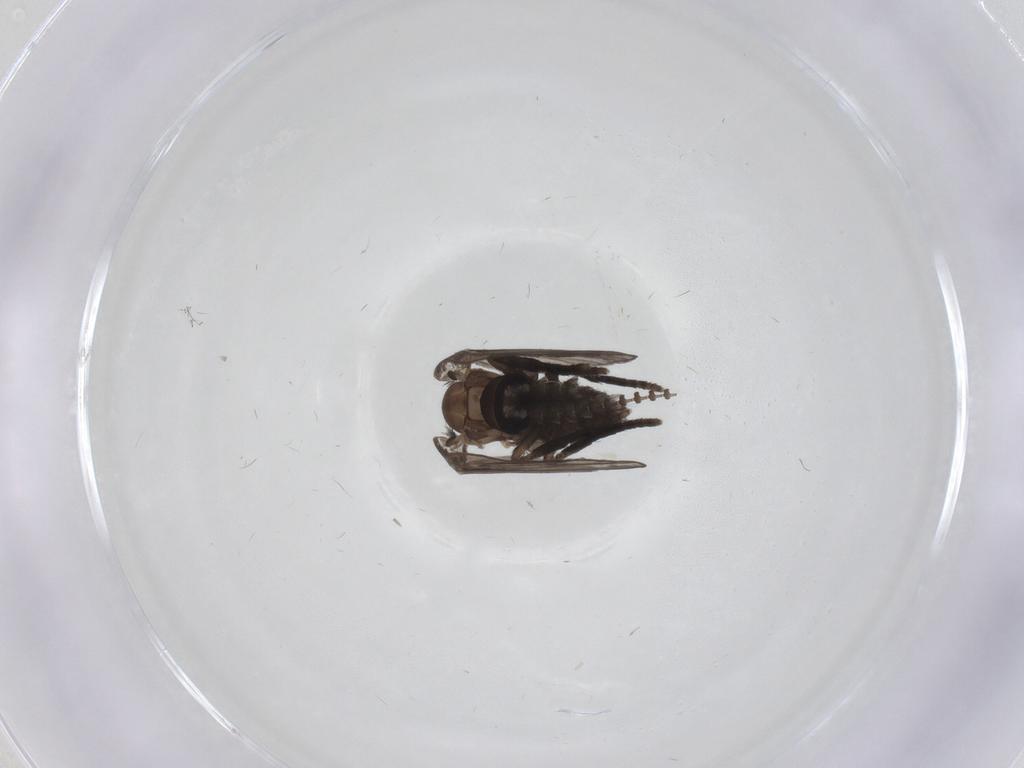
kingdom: Animalia
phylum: Arthropoda
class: Insecta
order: Diptera
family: Psychodidae
